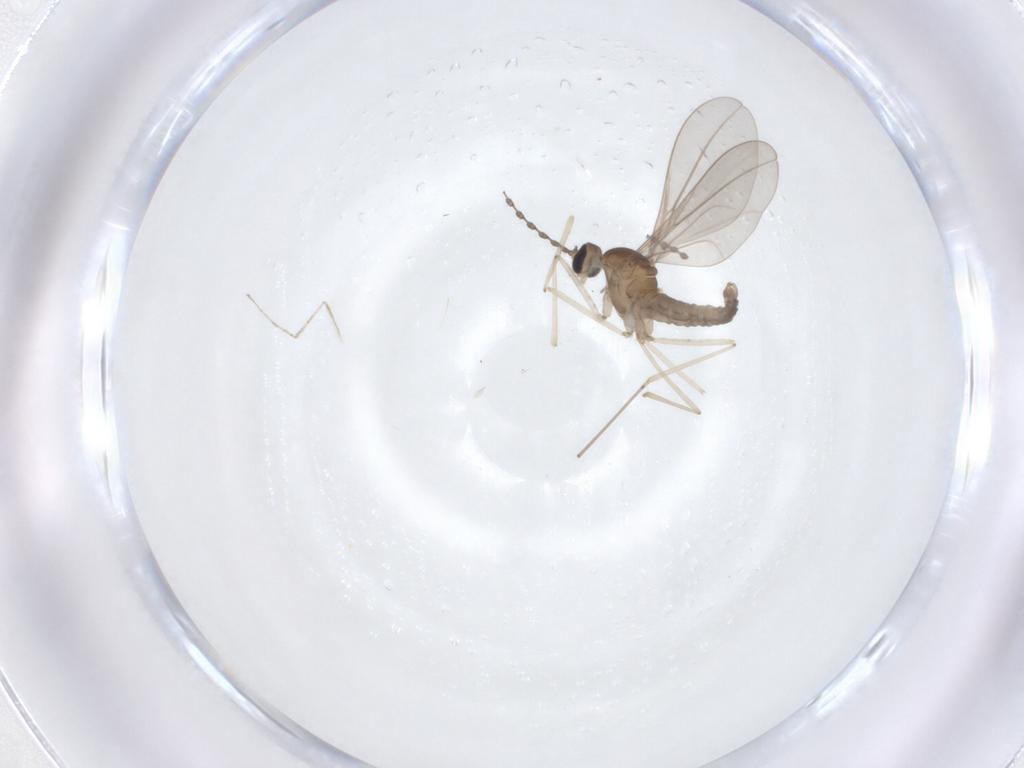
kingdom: Animalia
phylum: Arthropoda
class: Insecta
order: Diptera
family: Cecidomyiidae
